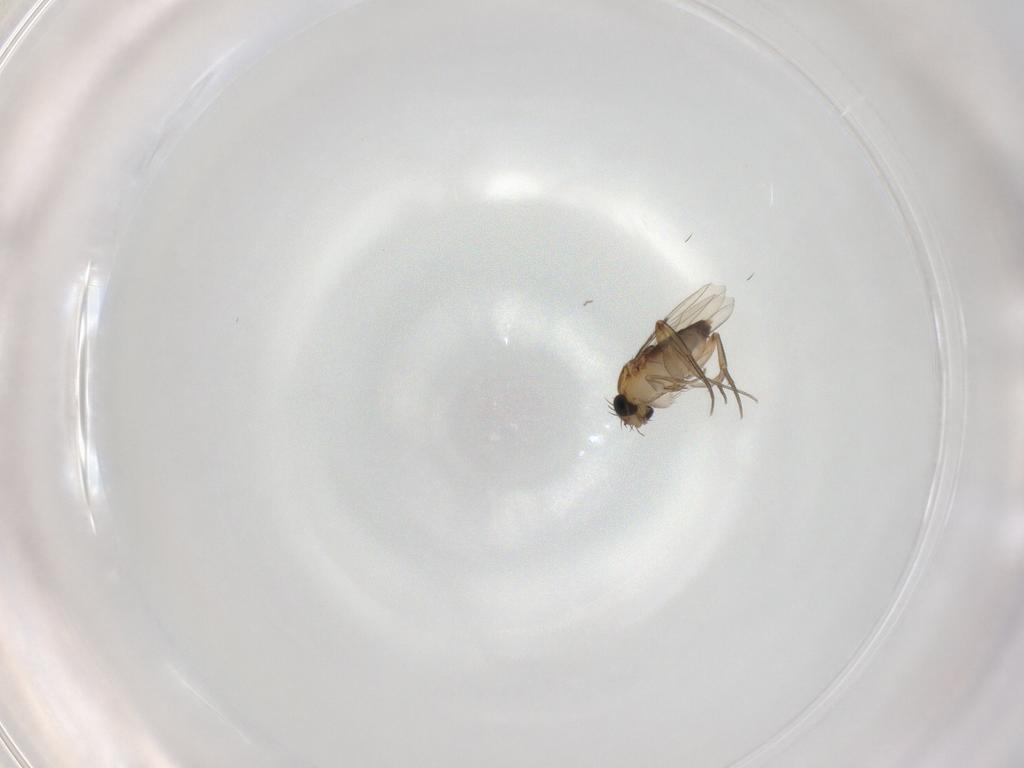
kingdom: Animalia
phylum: Arthropoda
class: Insecta
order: Diptera
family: Phoridae
